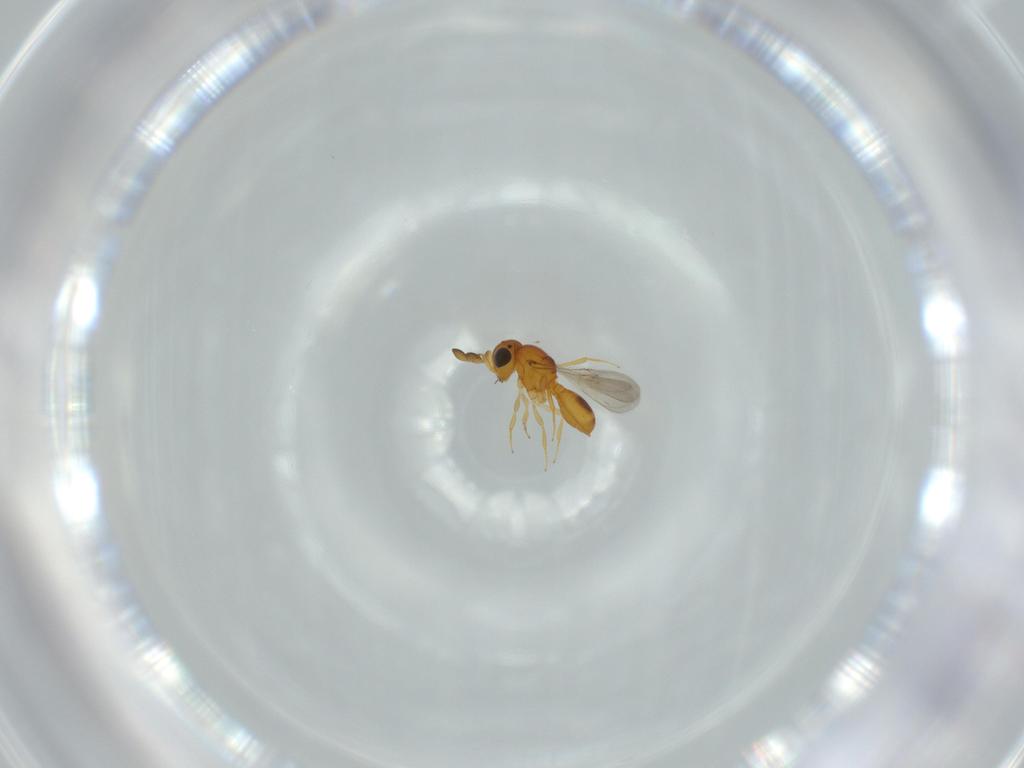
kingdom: Animalia
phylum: Arthropoda
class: Insecta
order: Hymenoptera
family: Scelionidae
